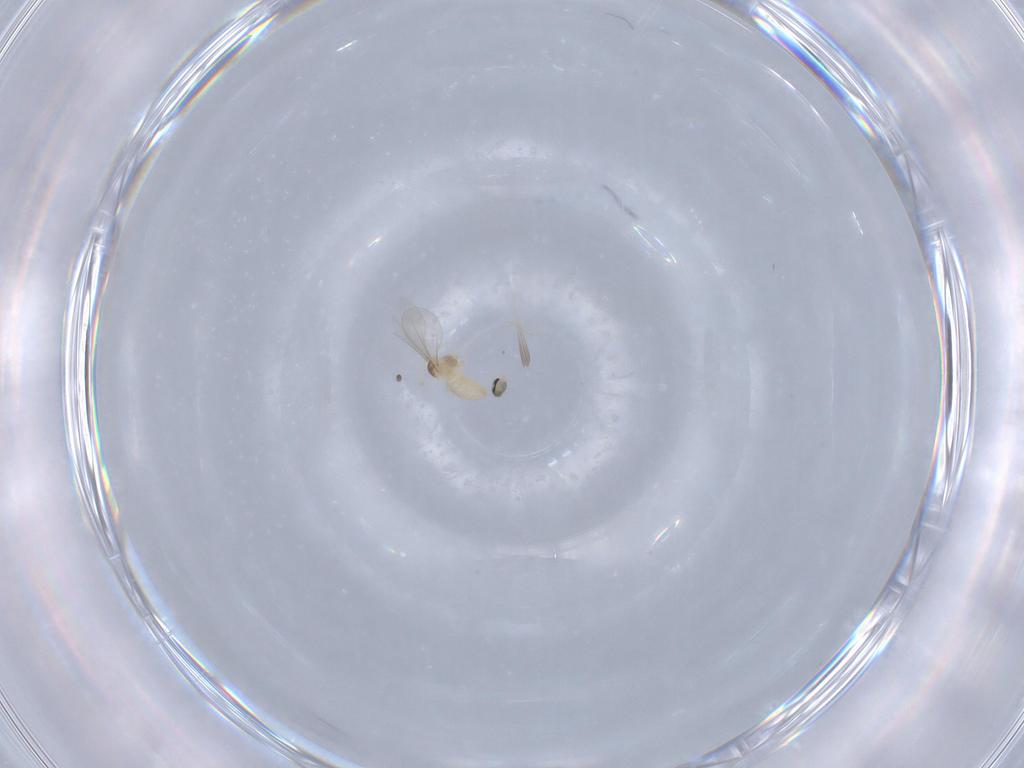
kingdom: Animalia
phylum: Arthropoda
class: Insecta
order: Diptera
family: Cecidomyiidae
